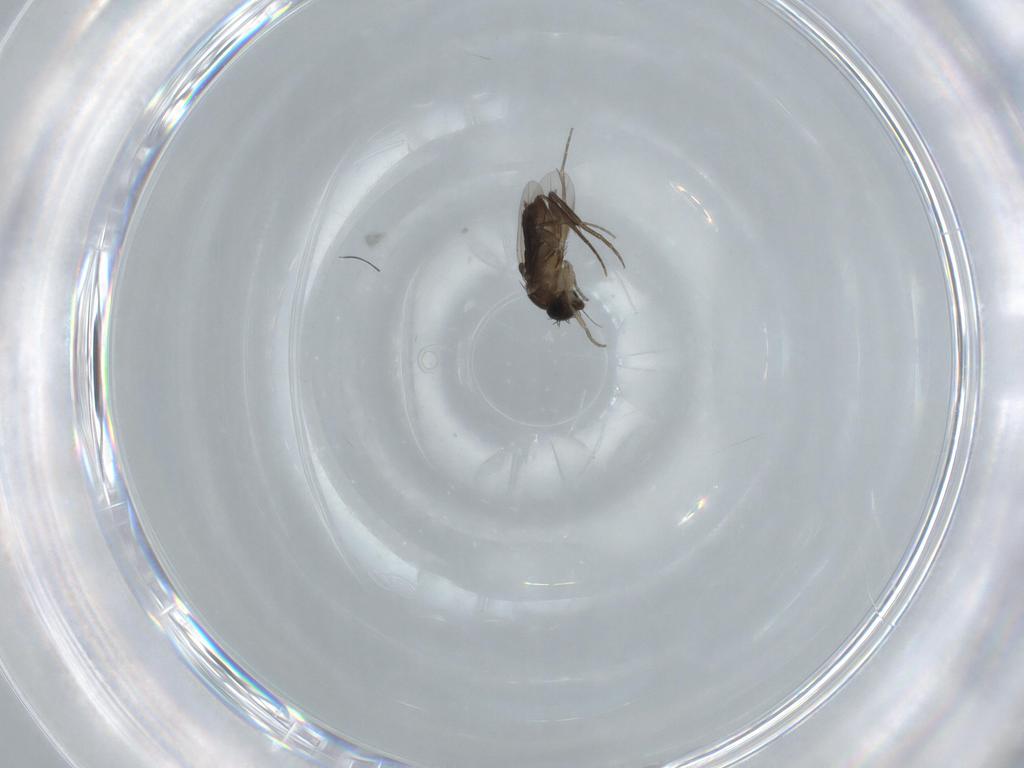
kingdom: Animalia
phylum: Arthropoda
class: Insecta
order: Diptera
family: Phoridae
